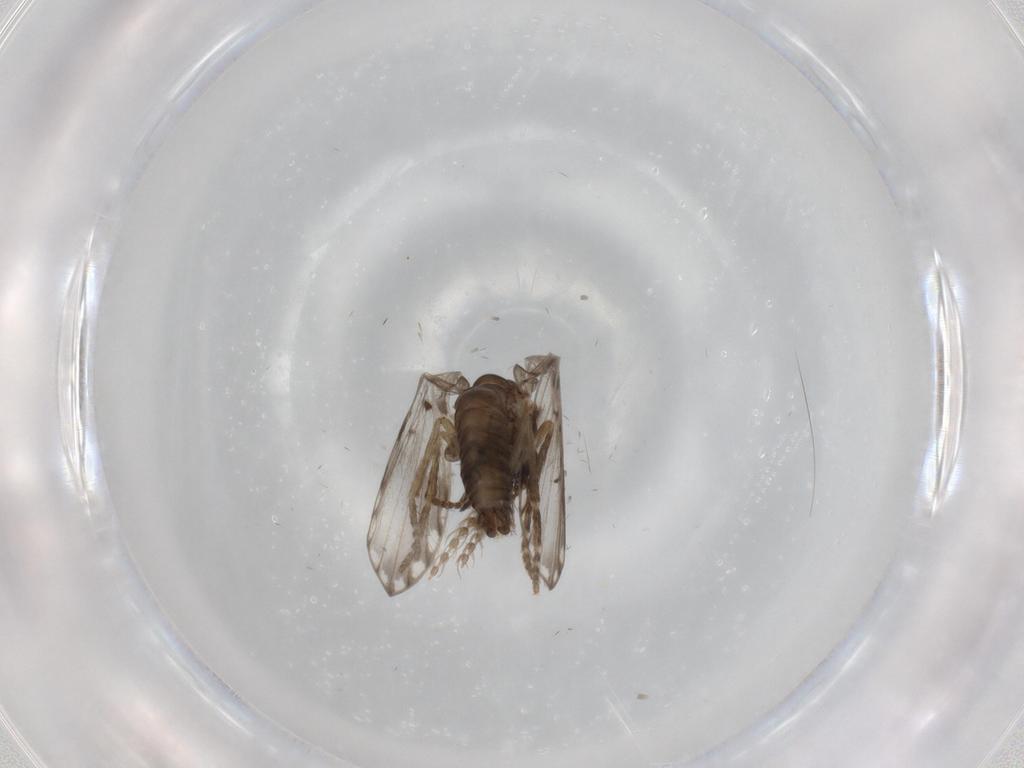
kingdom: Animalia
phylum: Arthropoda
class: Insecta
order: Diptera
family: Psychodidae
